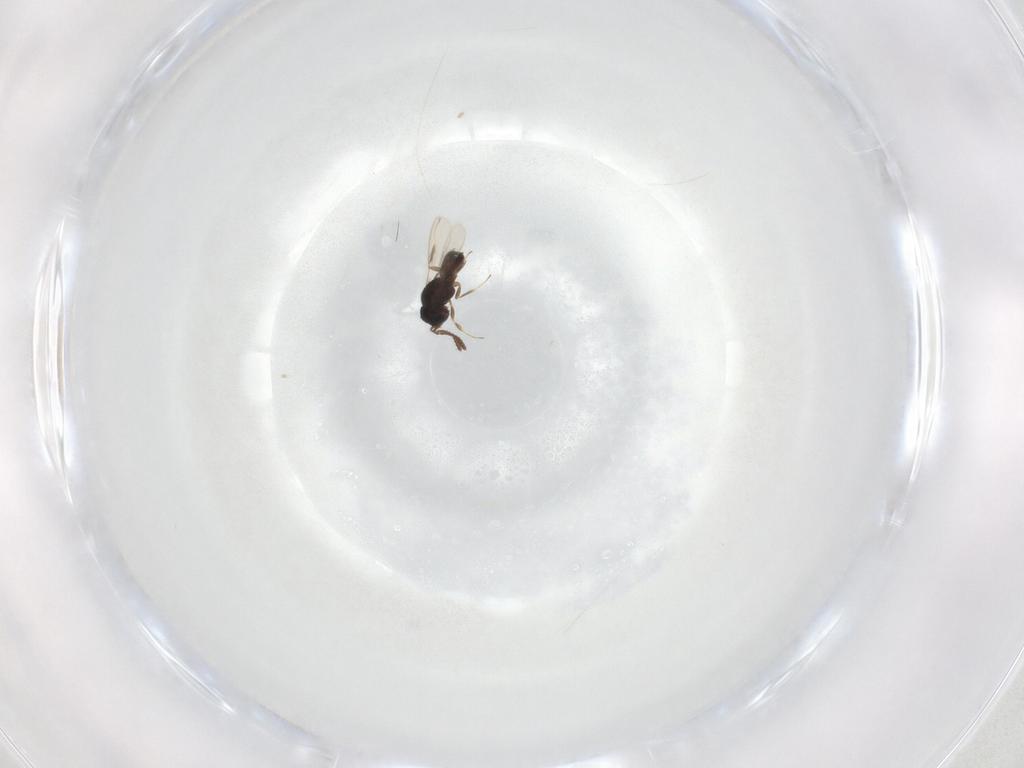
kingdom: Animalia
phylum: Arthropoda
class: Insecta
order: Hymenoptera
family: Scelionidae
